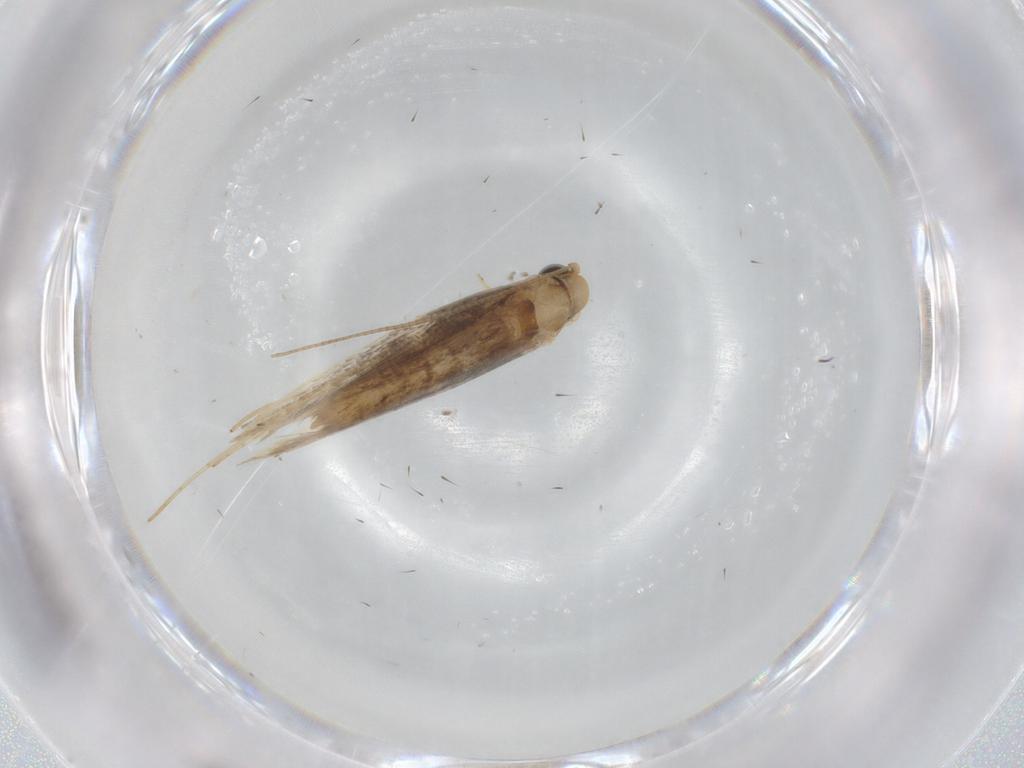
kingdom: Animalia
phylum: Arthropoda
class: Insecta
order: Lepidoptera
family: Gracillariidae
